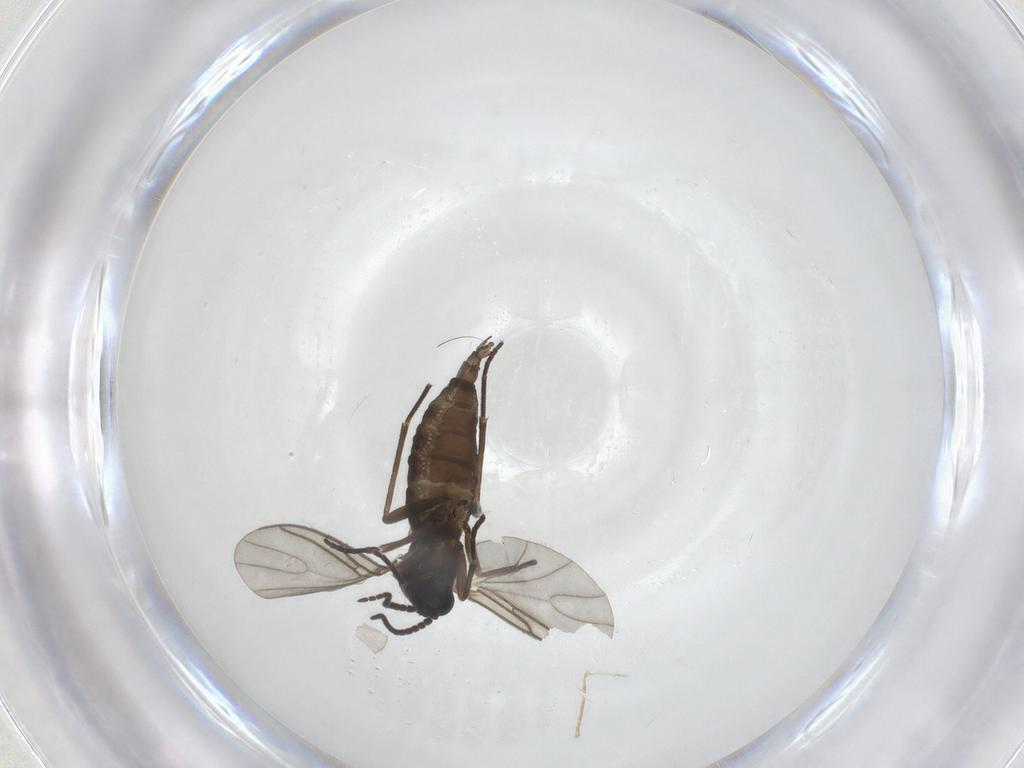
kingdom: Animalia
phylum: Arthropoda
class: Insecta
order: Diptera
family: Sciaridae
